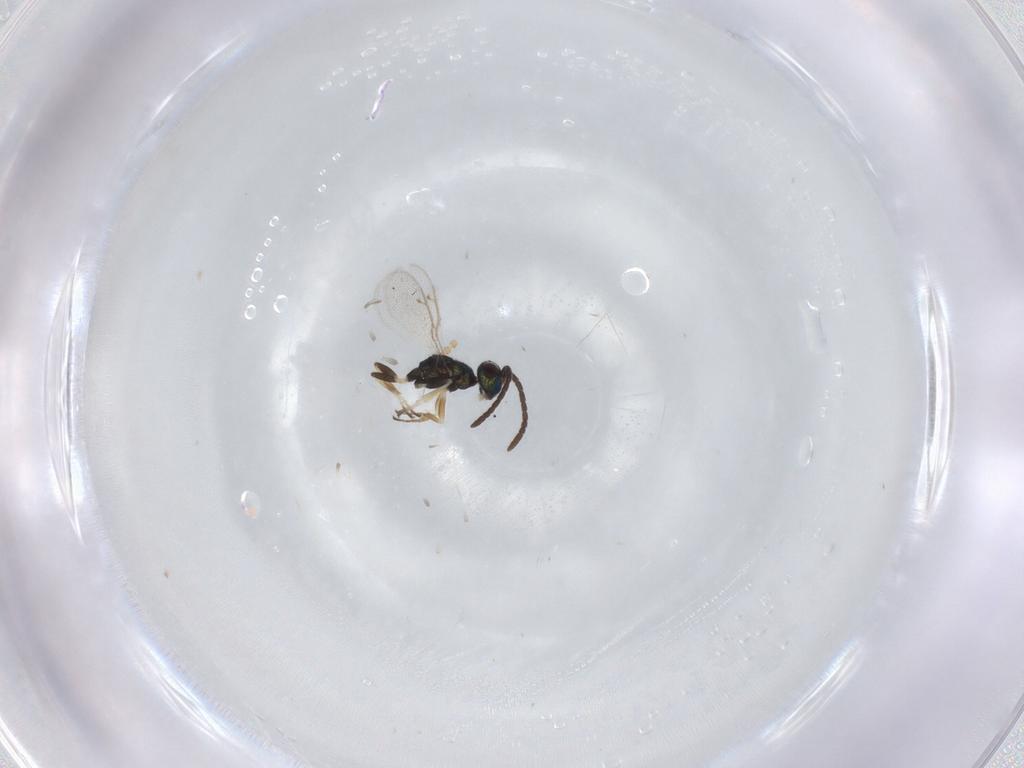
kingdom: Animalia
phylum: Arthropoda
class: Insecta
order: Hymenoptera
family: Eupelmidae
